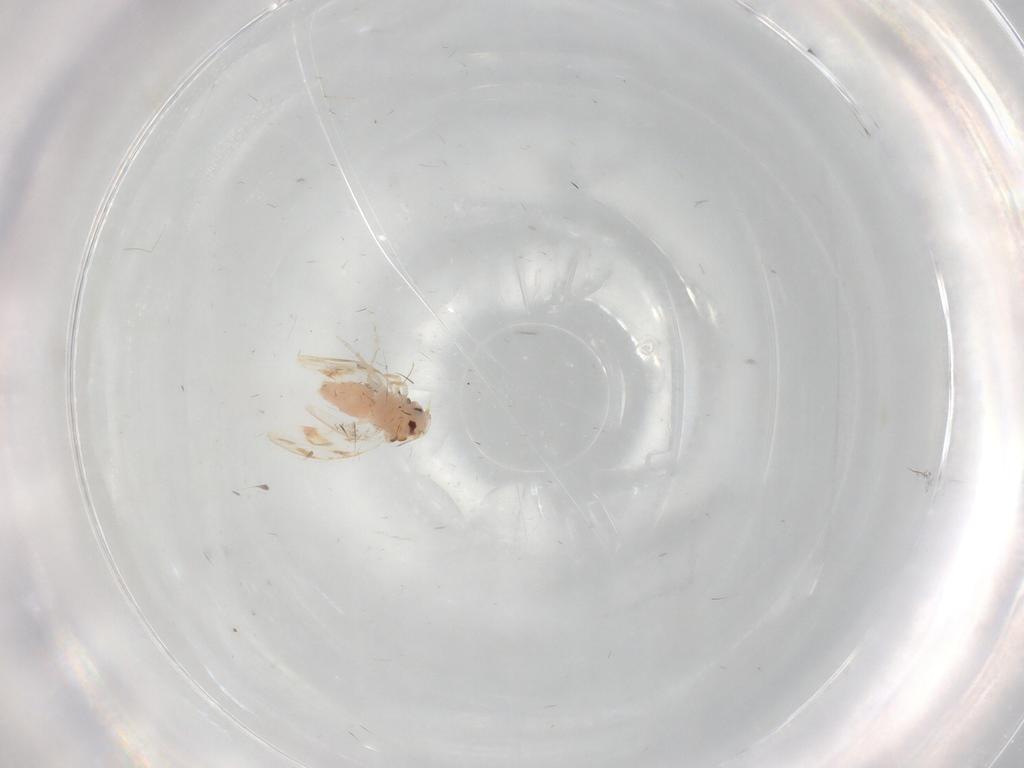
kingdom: Animalia
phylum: Arthropoda
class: Insecta
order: Hemiptera
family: Aleyrodidae
